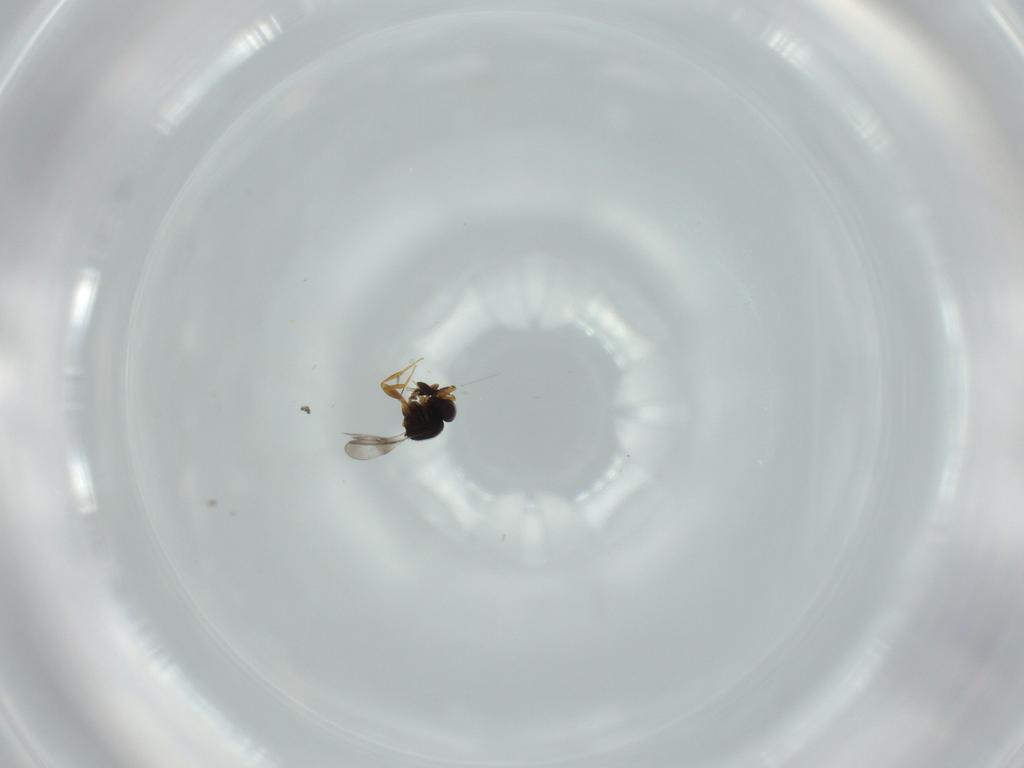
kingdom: Animalia
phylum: Arthropoda
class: Insecta
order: Hymenoptera
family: Ceraphronidae
